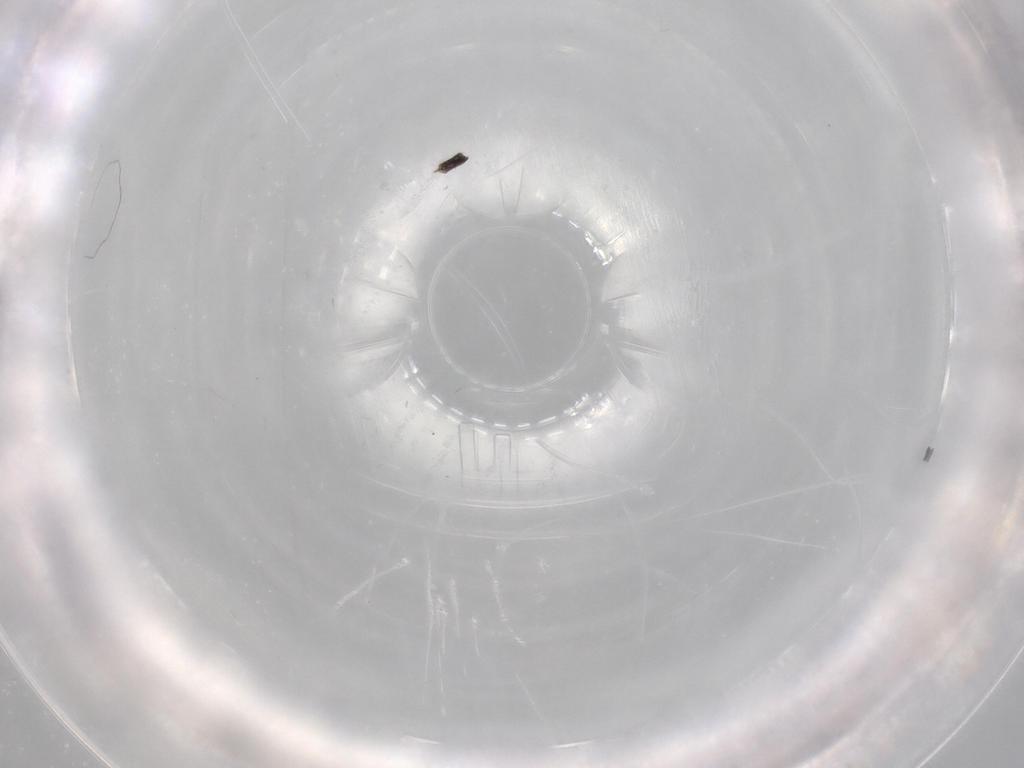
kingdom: Animalia
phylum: Arthropoda
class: Insecta
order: Hymenoptera
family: Mymaridae
